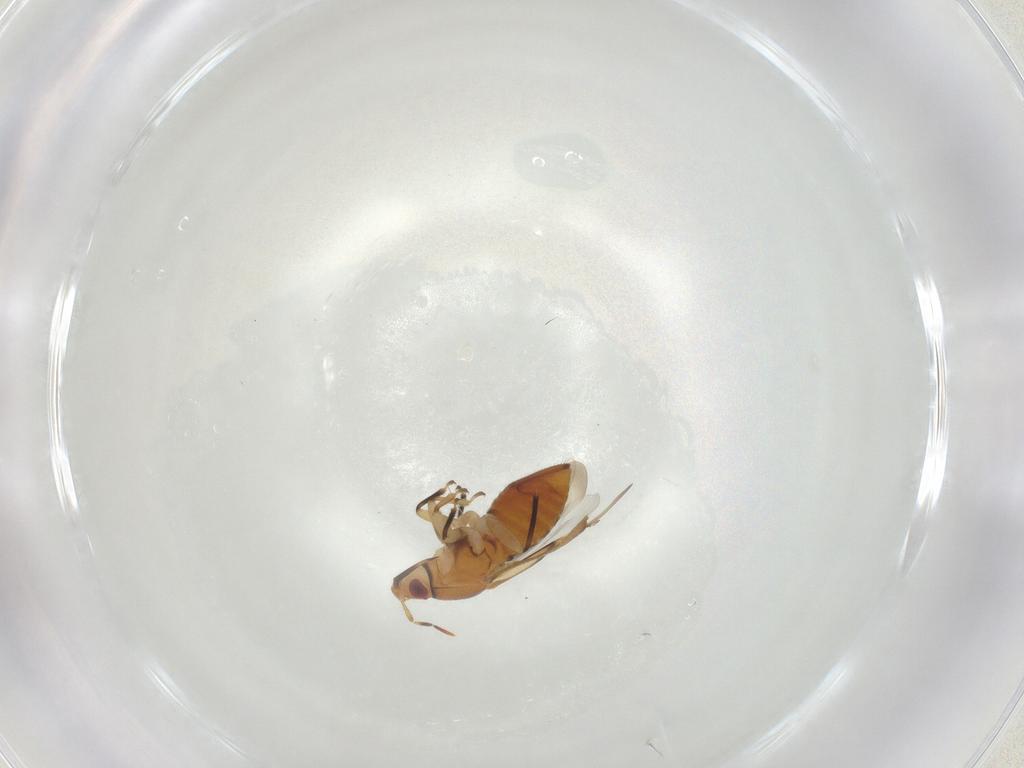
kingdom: Animalia
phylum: Arthropoda
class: Insecta
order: Hemiptera
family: Anthocoridae
